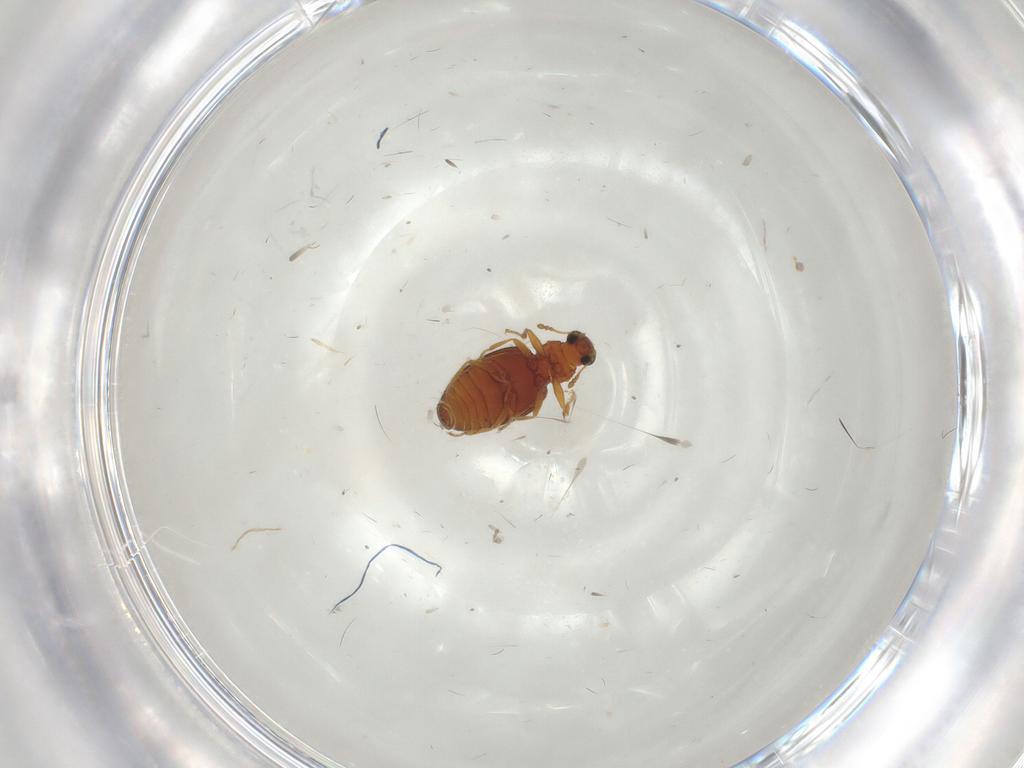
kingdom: Animalia
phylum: Arthropoda
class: Insecta
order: Coleoptera
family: Latridiidae
